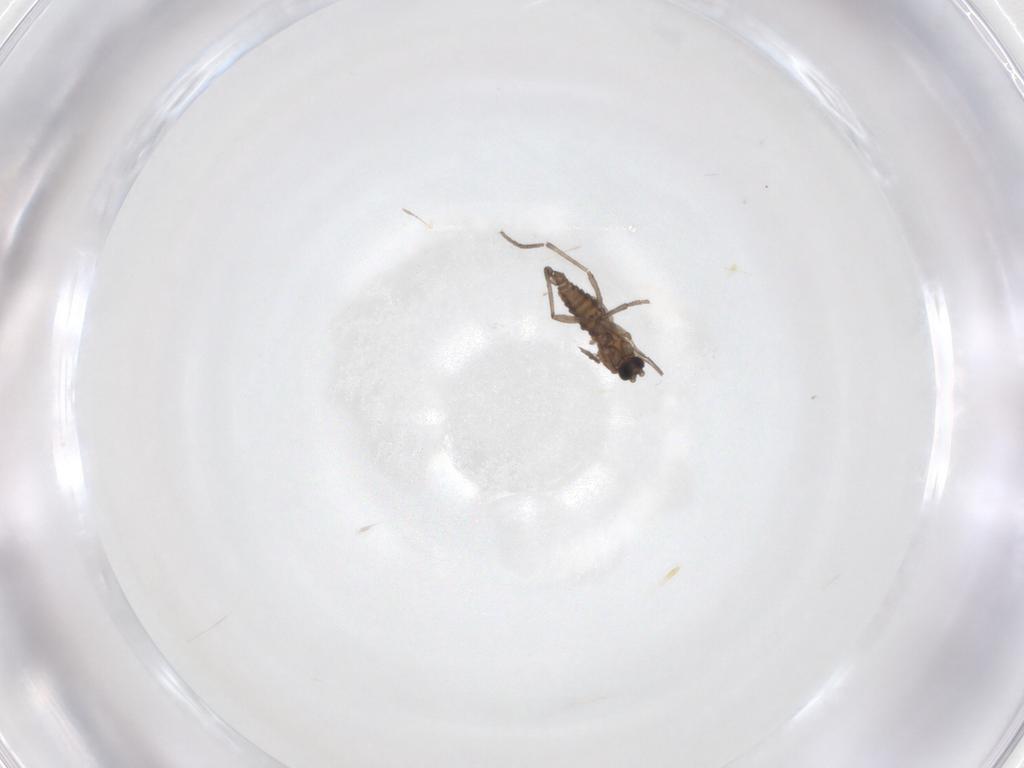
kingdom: Animalia
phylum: Arthropoda
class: Insecta
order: Diptera
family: Sciaridae
